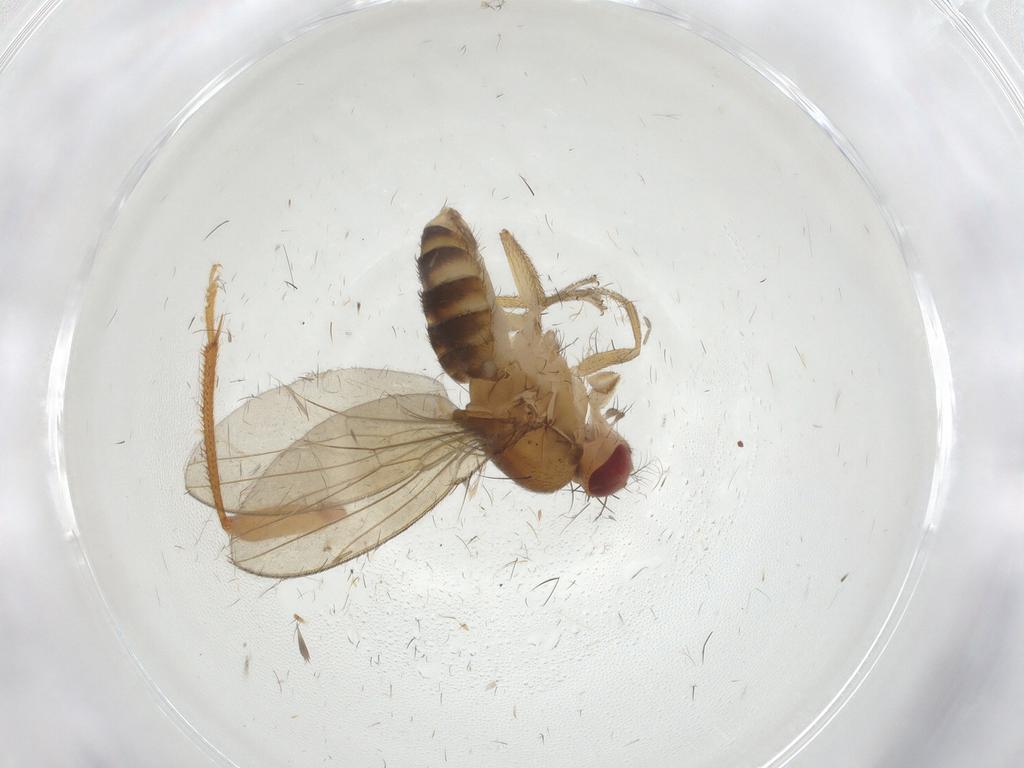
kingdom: Animalia
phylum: Arthropoda
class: Insecta
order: Diptera
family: Drosophilidae
